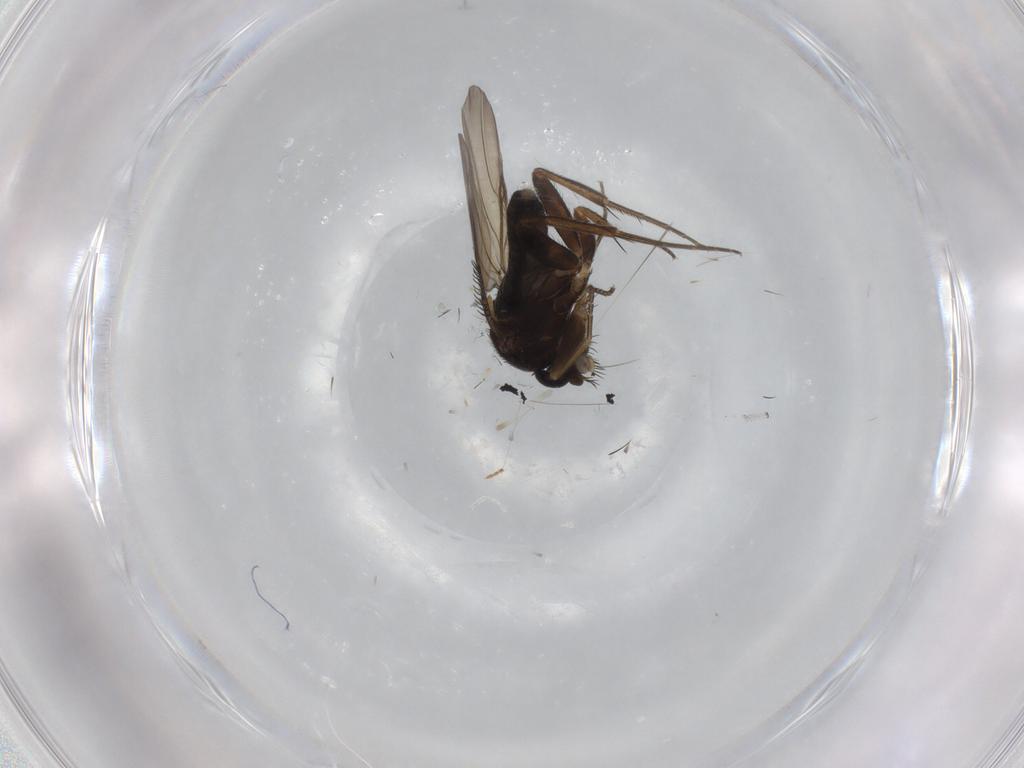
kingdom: Animalia
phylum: Arthropoda
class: Insecta
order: Diptera
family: Phoridae
